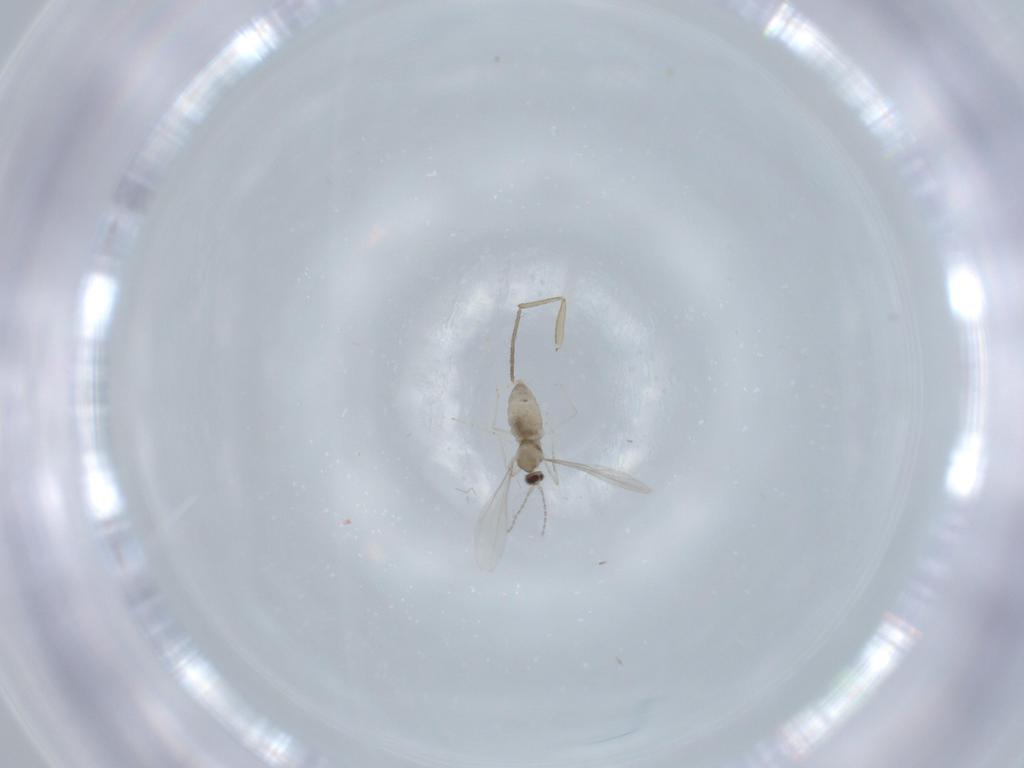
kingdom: Animalia
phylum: Arthropoda
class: Insecta
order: Diptera
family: Cecidomyiidae
